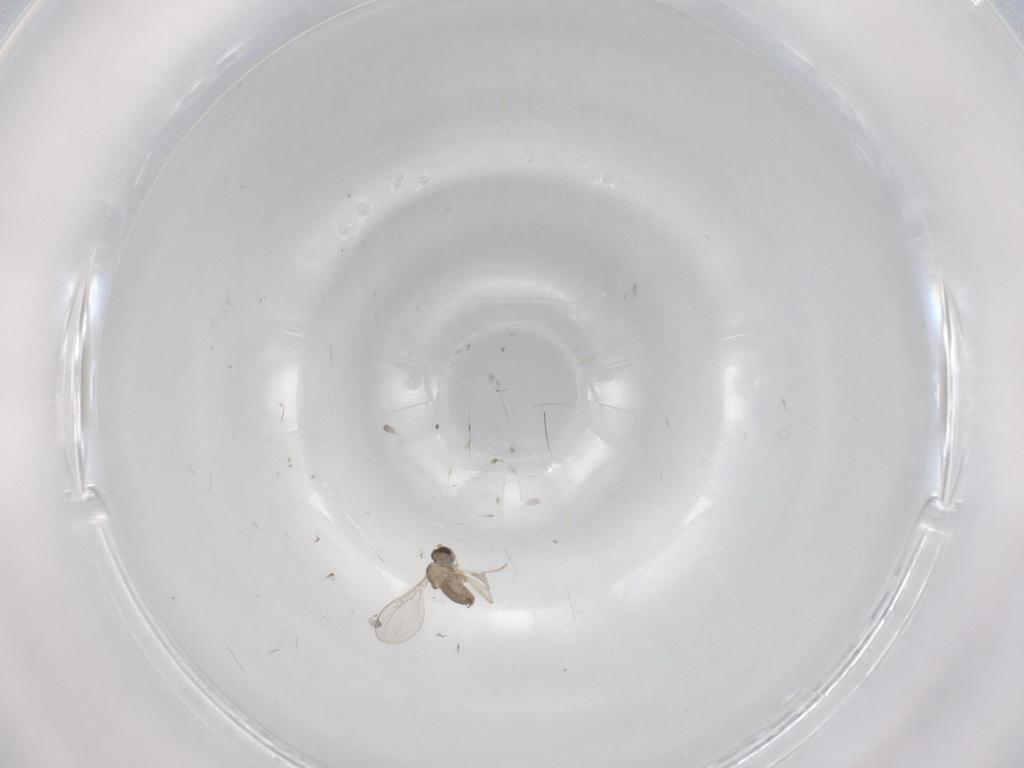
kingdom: Animalia
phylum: Arthropoda
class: Insecta
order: Diptera
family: Cecidomyiidae
